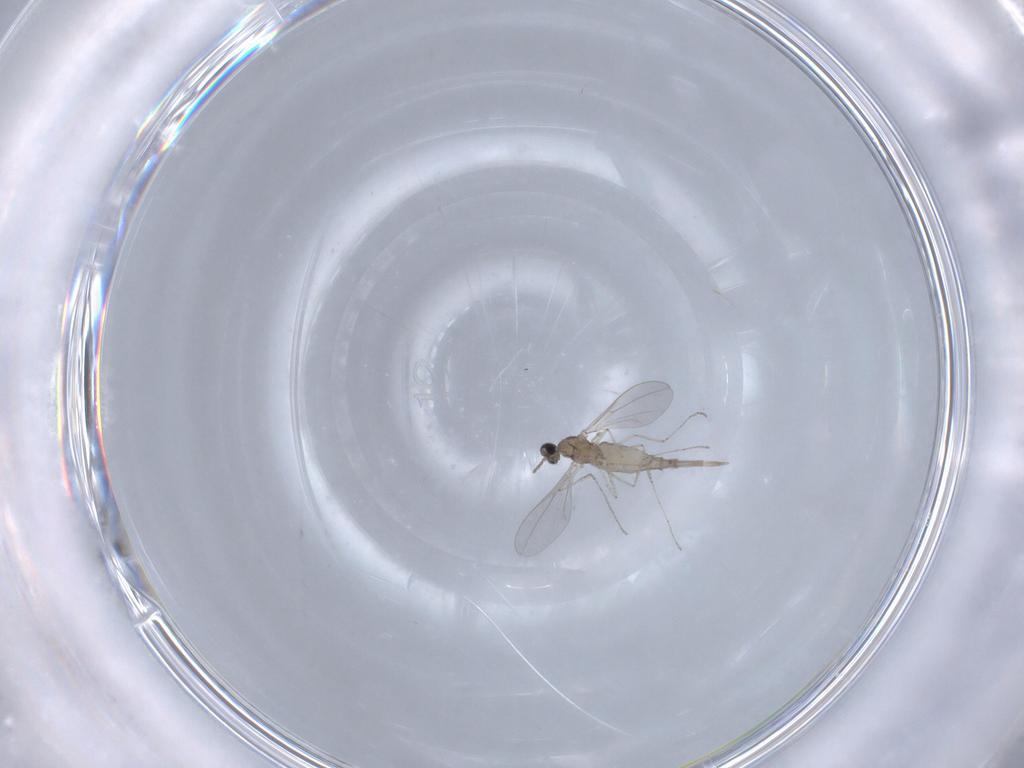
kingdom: Animalia
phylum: Arthropoda
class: Insecta
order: Diptera
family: Cecidomyiidae
